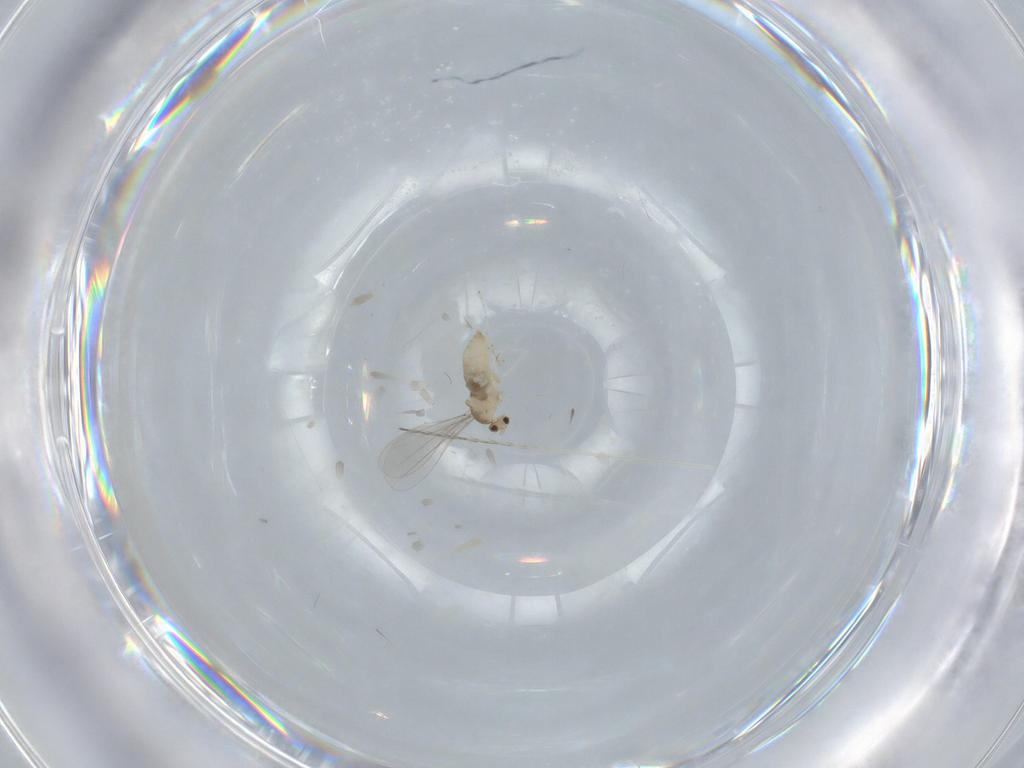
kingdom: Animalia
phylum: Arthropoda
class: Insecta
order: Diptera
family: Cecidomyiidae
